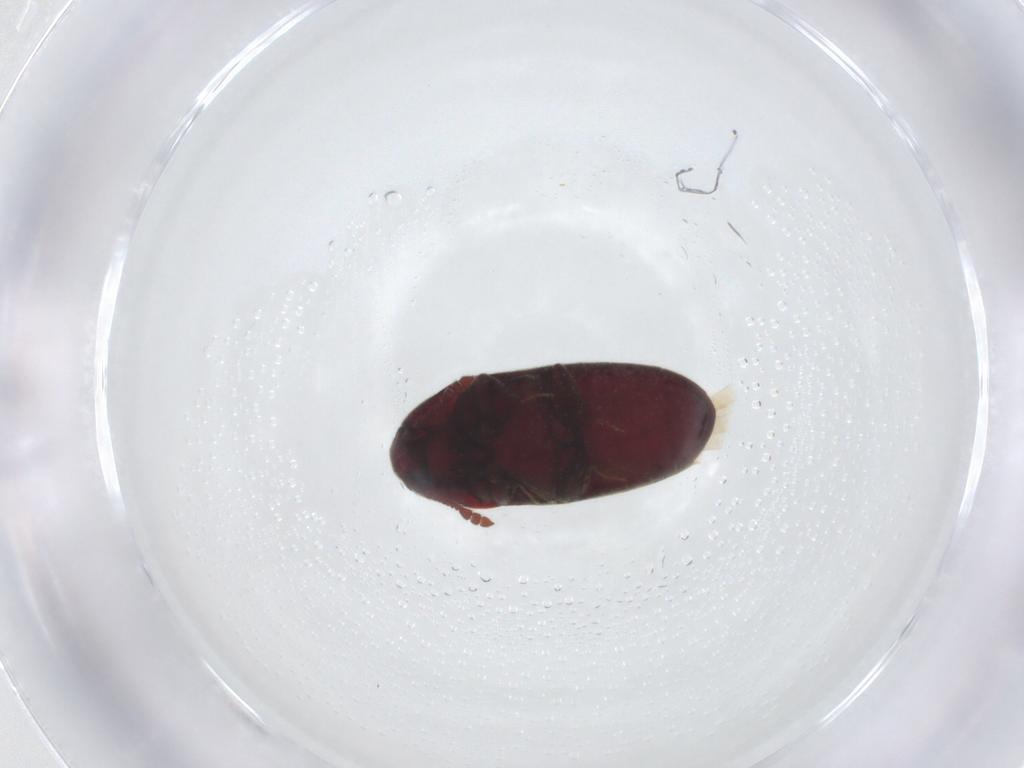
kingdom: Animalia
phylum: Arthropoda
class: Insecta
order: Coleoptera
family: Throscidae
